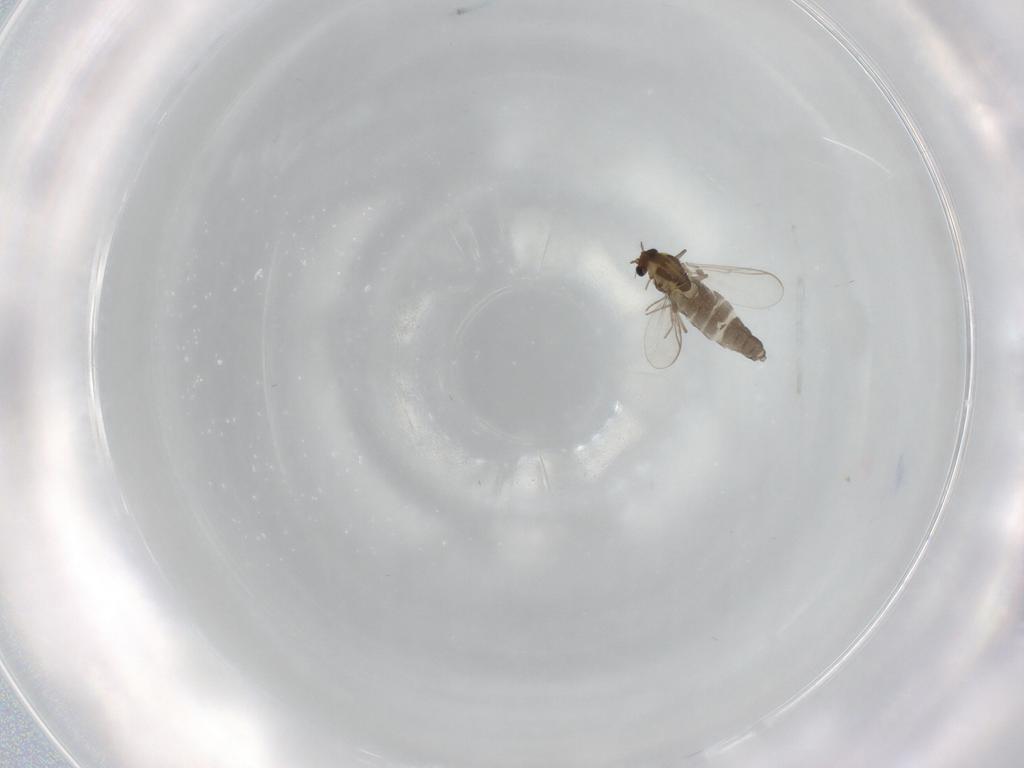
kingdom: Animalia
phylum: Arthropoda
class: Insecta
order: Diptera
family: Chironomidae
